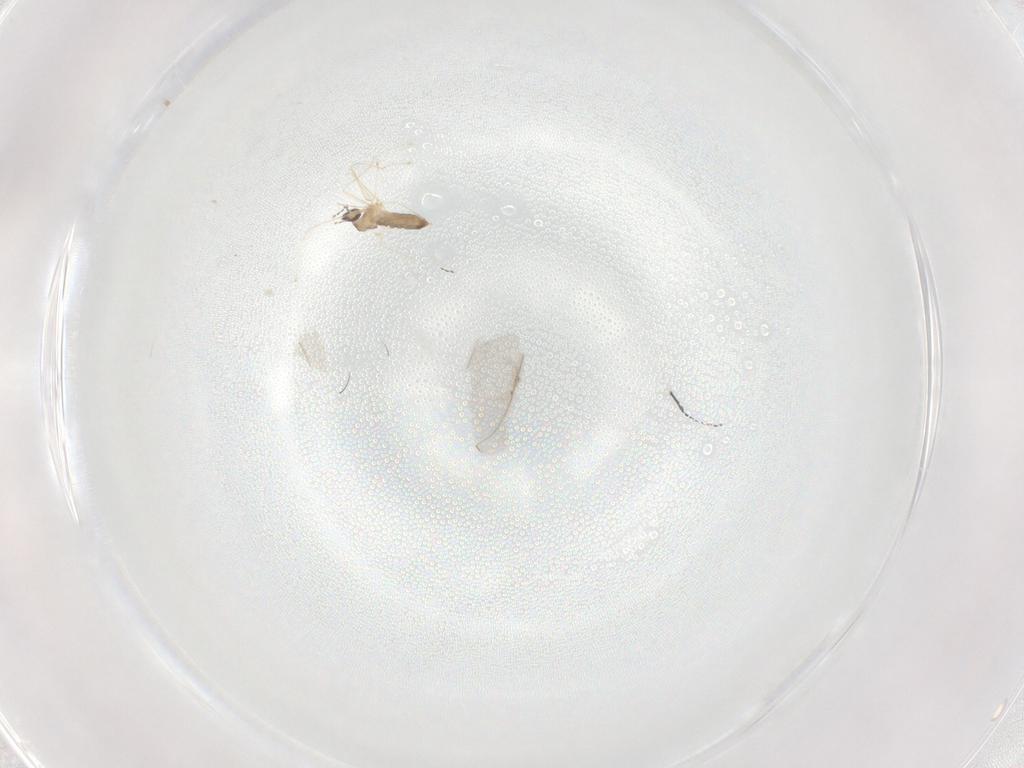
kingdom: Animalia
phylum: Arthropoda
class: Insecta
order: Diptera
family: Cecidomyiidae
